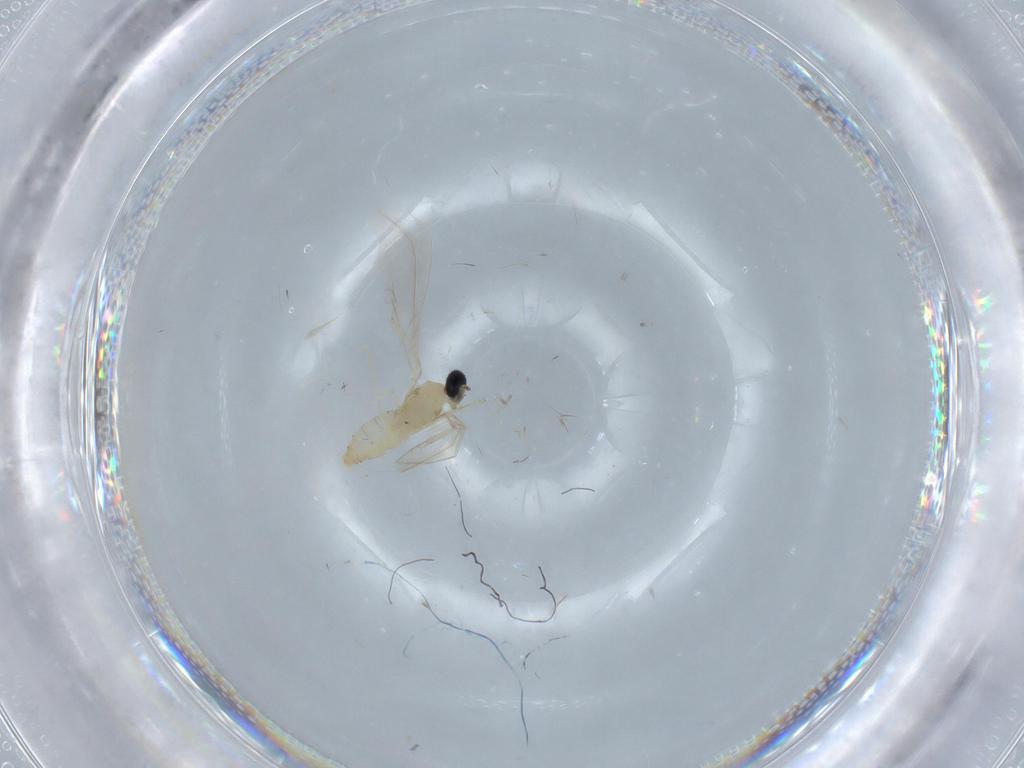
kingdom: Animalia
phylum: Arthropoda
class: Insecta
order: Diptera
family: Cecidomyiidae
